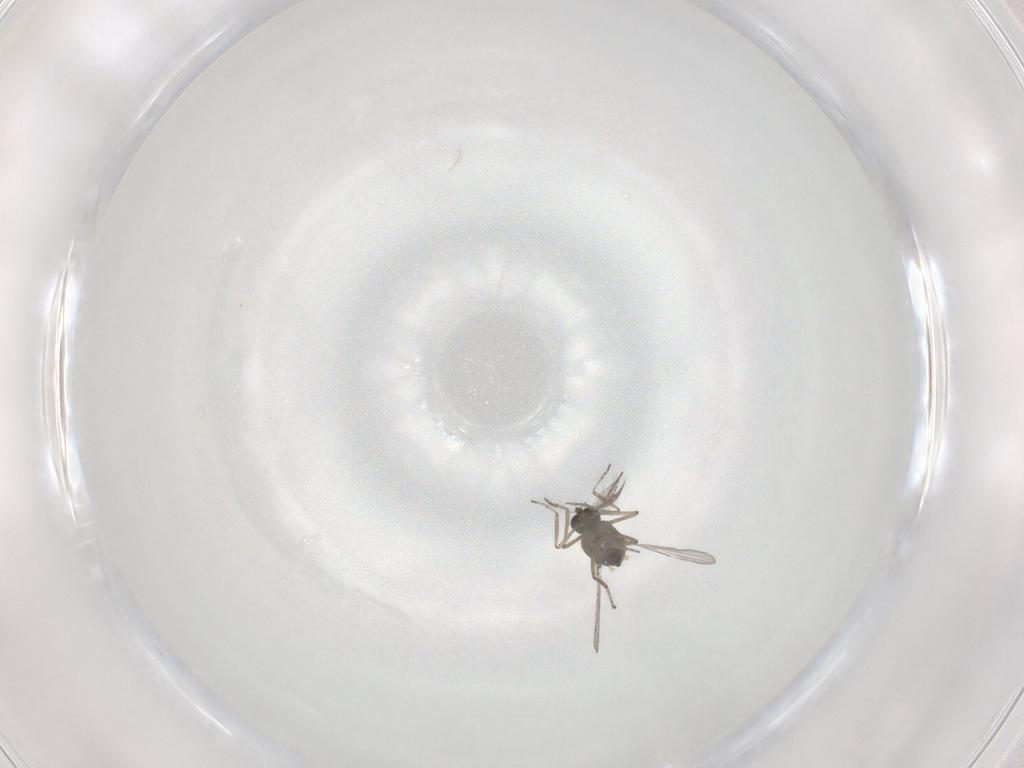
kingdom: Animalia
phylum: Arthropoda
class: Insecta
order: Diptera
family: Ceratopogonidae
